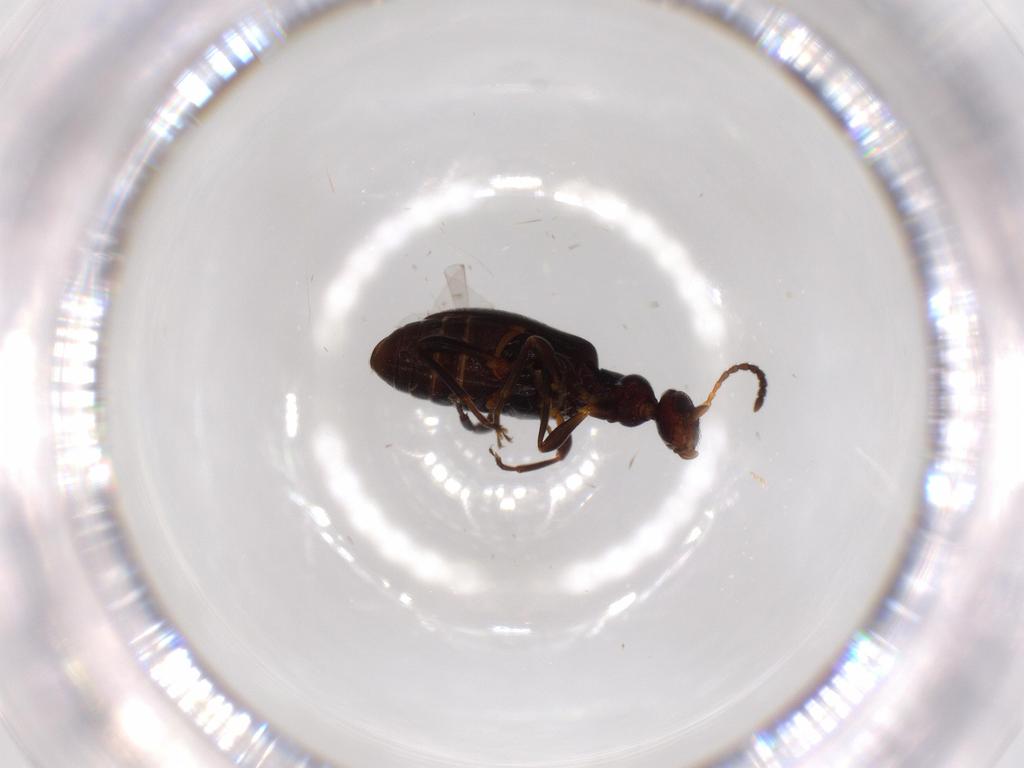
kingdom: Animalia
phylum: Arthropoda
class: Insecta
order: Coleoptera
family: Anthicidae
